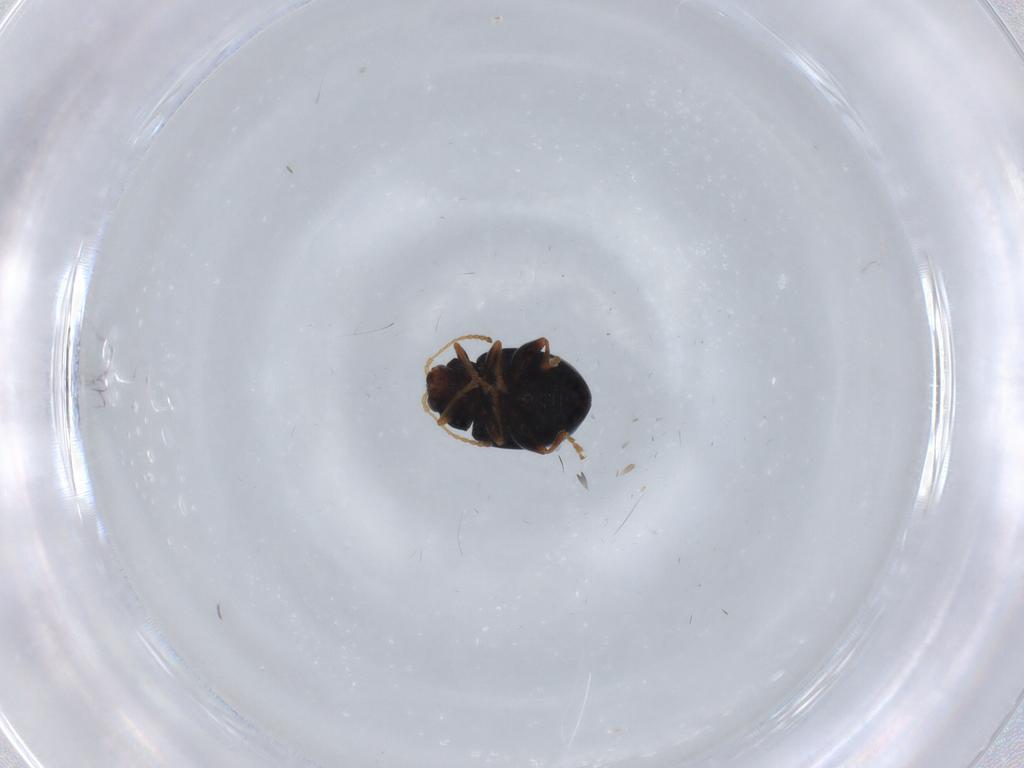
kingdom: Animalia
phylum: Arthropoda
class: Insecta
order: Coleoptera
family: Chrysomelidae
